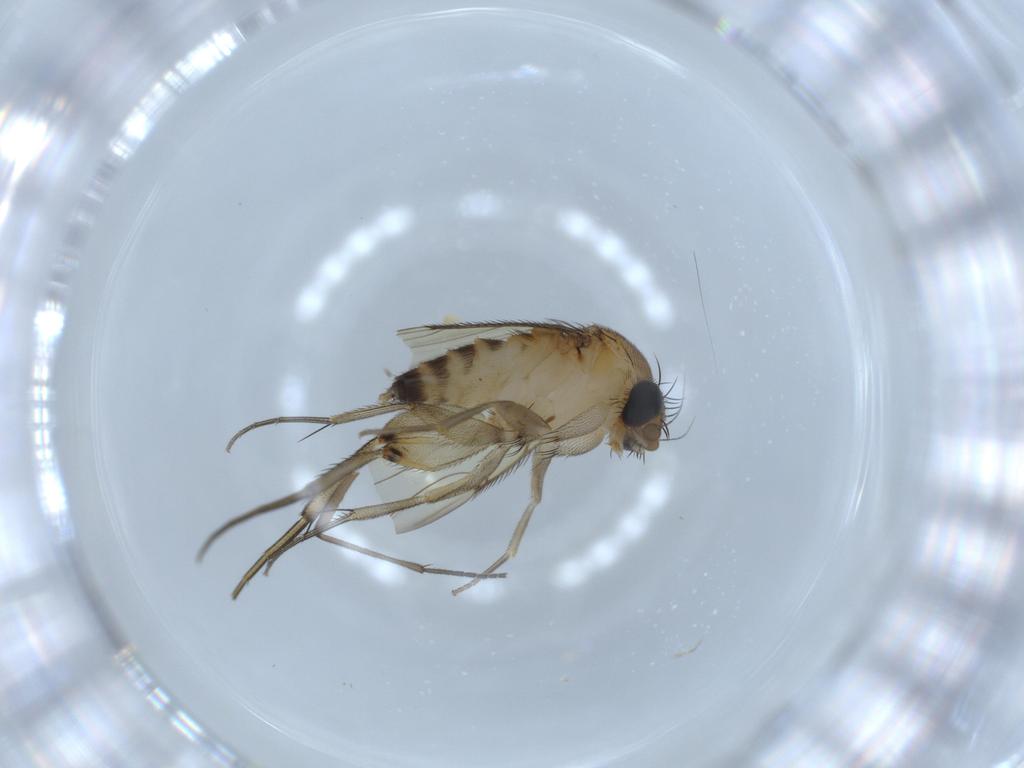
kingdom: Animalia
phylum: Arthropoda
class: Insecta
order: Diptera
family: Phoridae
